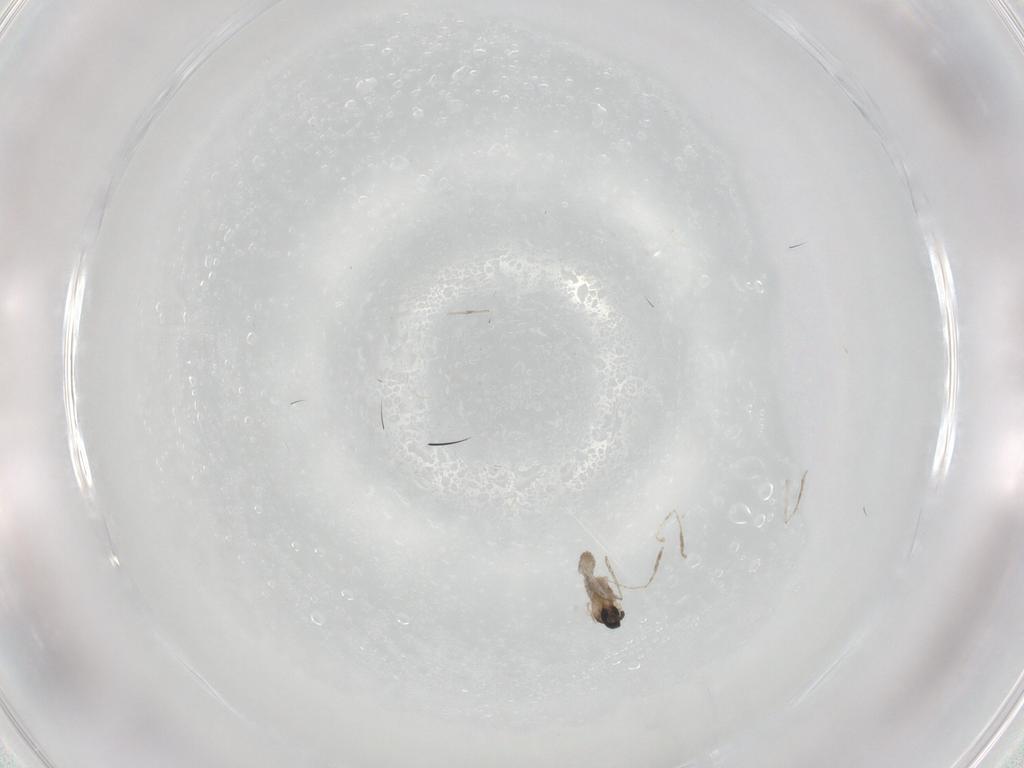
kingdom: Animalia
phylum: Arthropoda
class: Insecta
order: Diptera
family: Cecidomyiidae
